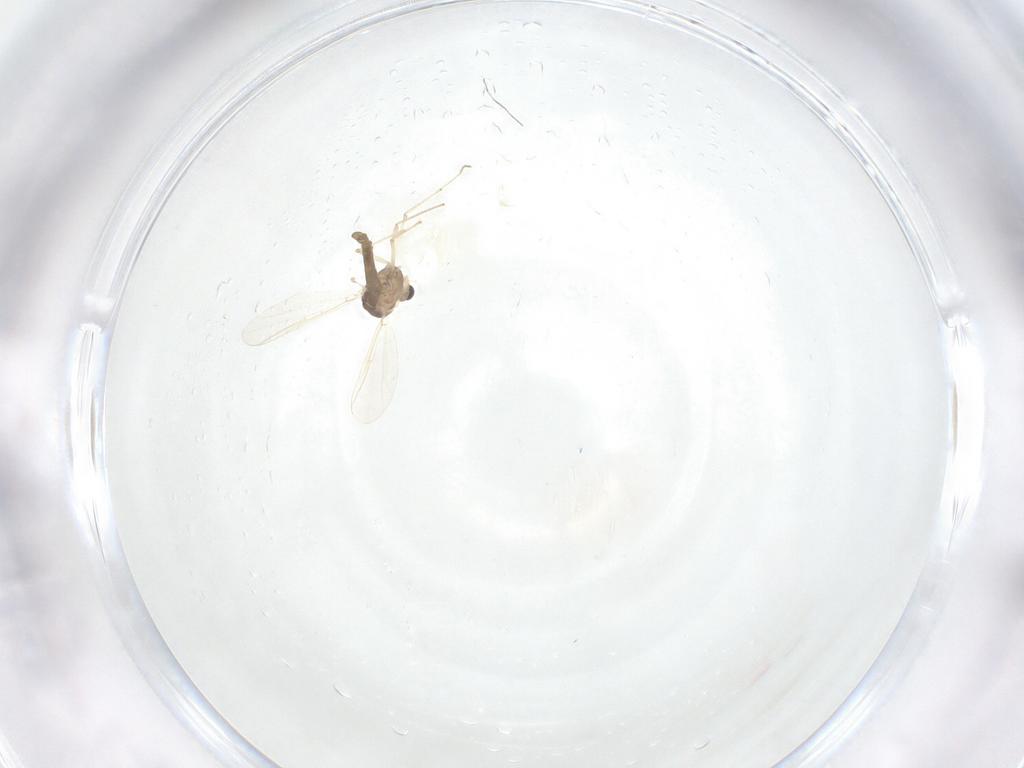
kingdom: Animalia
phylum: Arthropoda
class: Insecta
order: Diptera
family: Chironomidae
